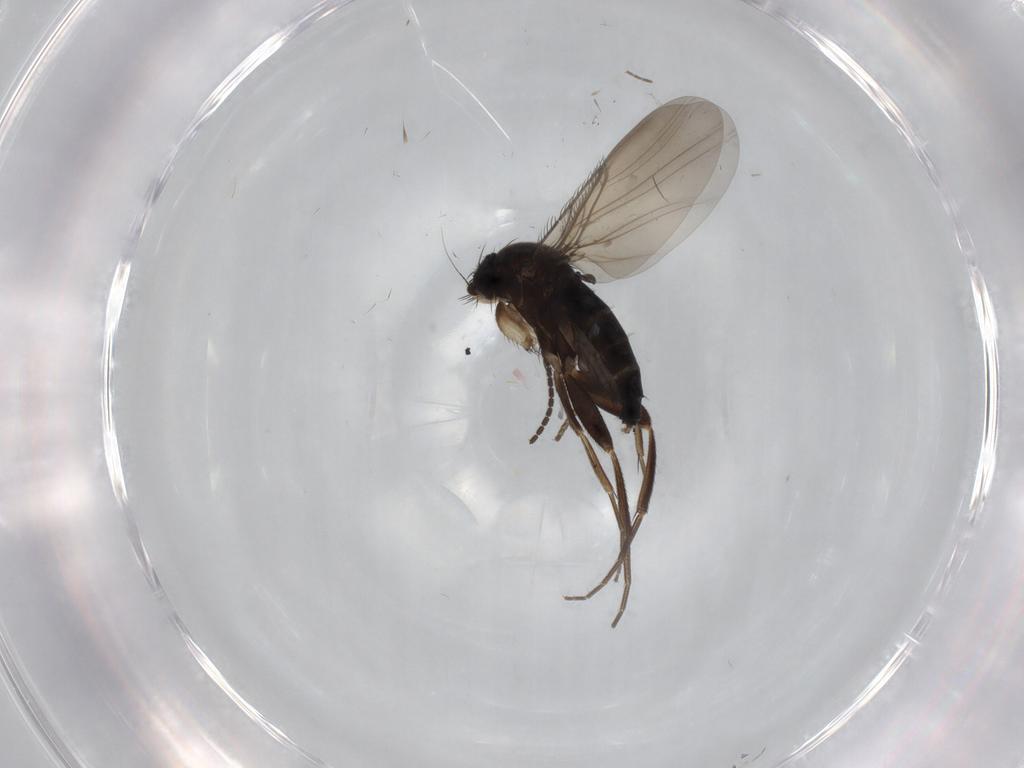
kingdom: Animalia
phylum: Arthropoda
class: Insecta
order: Diptera
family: Phoridae
